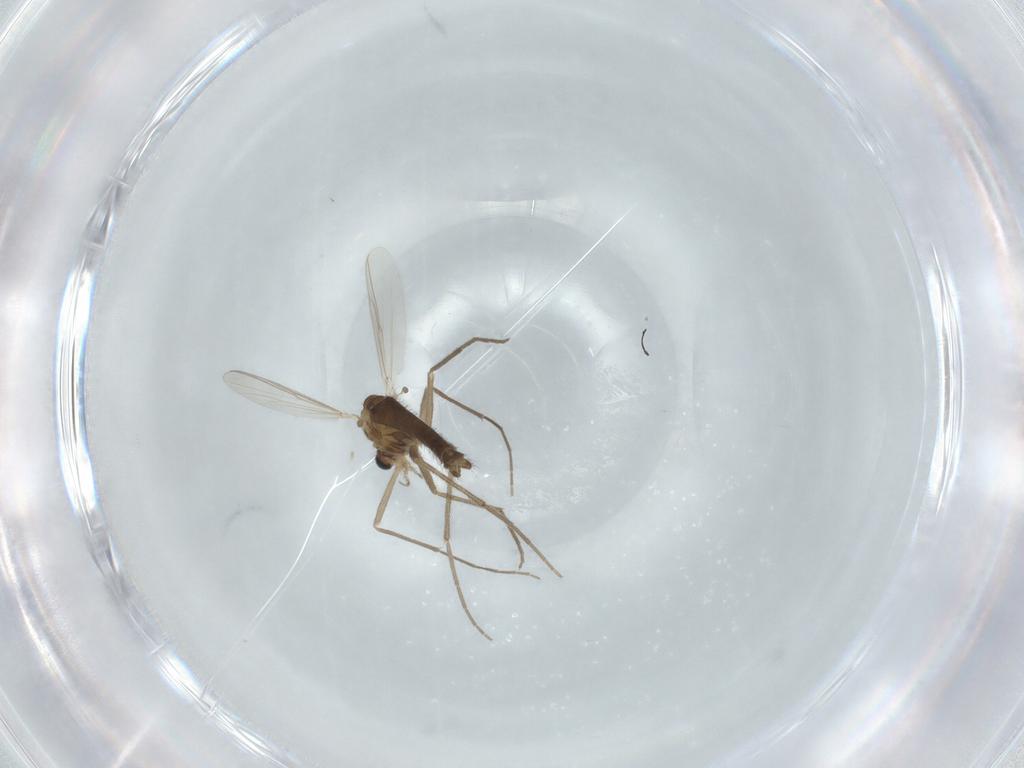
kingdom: Animalia
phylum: Arthropoda
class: Insecta
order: Diptera
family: Chironomidae
